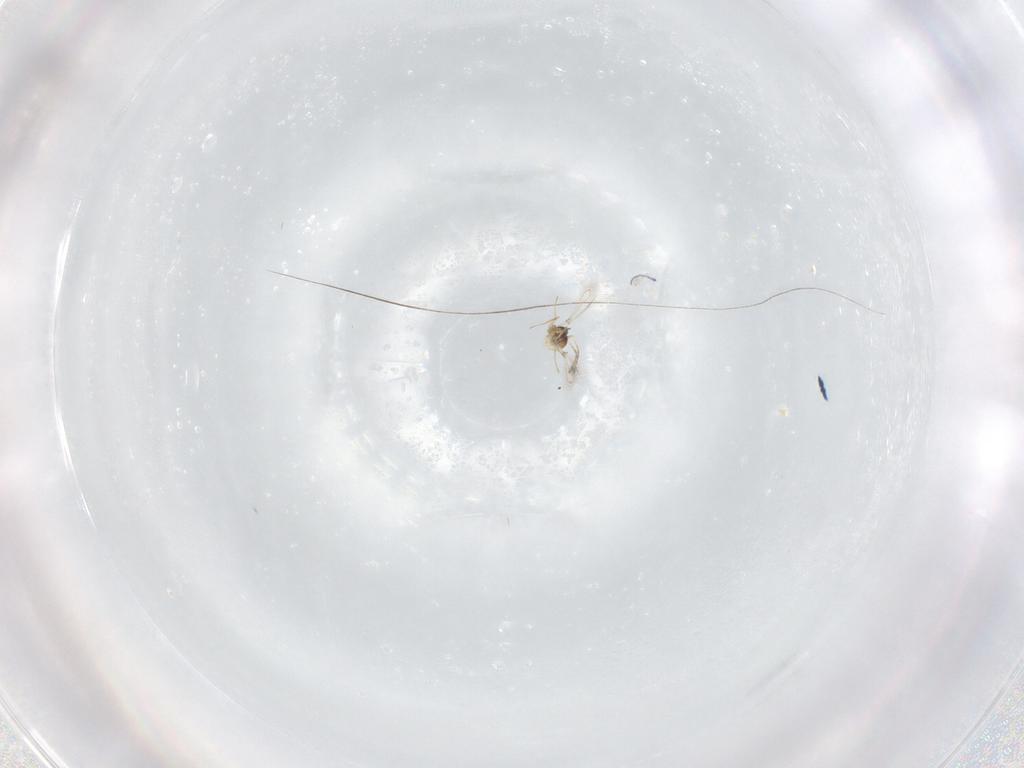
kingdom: Animalia
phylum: Arthropoda
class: Insecta
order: Hymenoptera
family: Mymaridae
